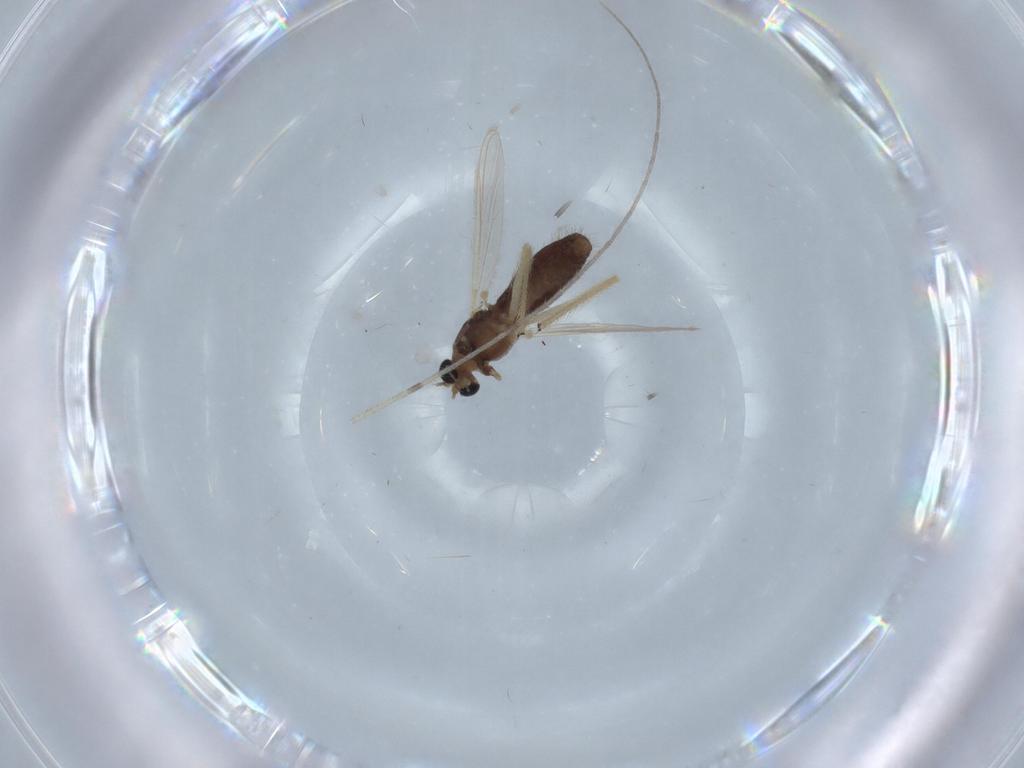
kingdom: Animalia
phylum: Arthropoda
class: Insecta
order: Diptera
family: Chironomidae
